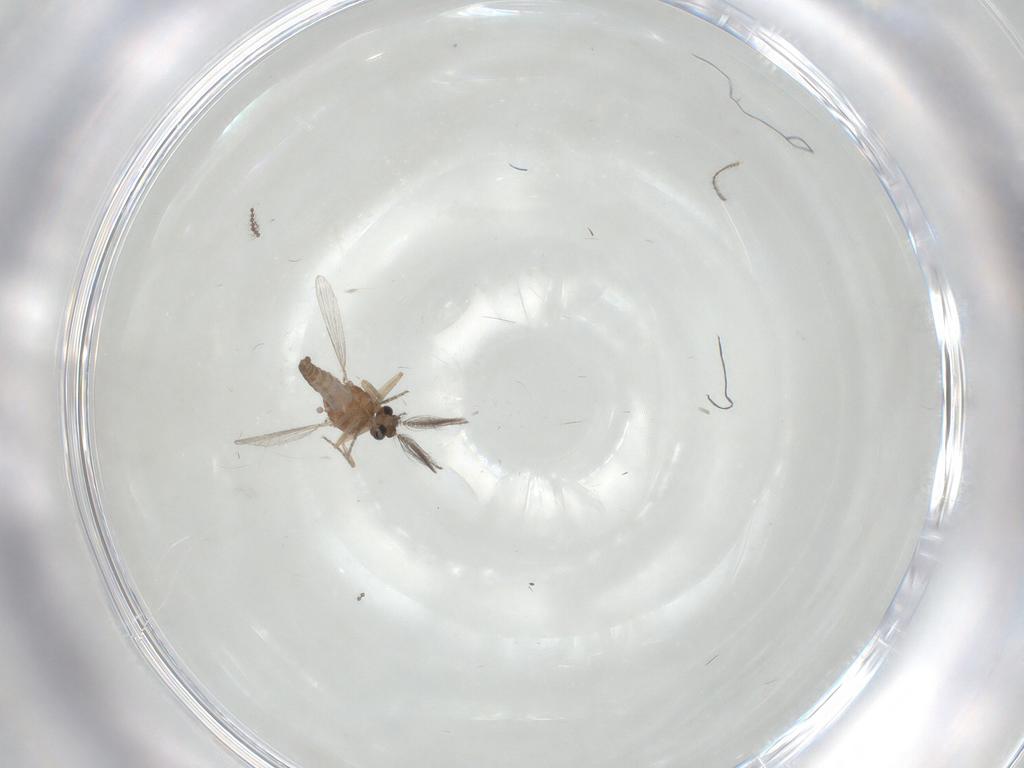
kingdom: Animalia
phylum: Arthropoda
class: Insecta
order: Diptera
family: Ceratopogonidae
